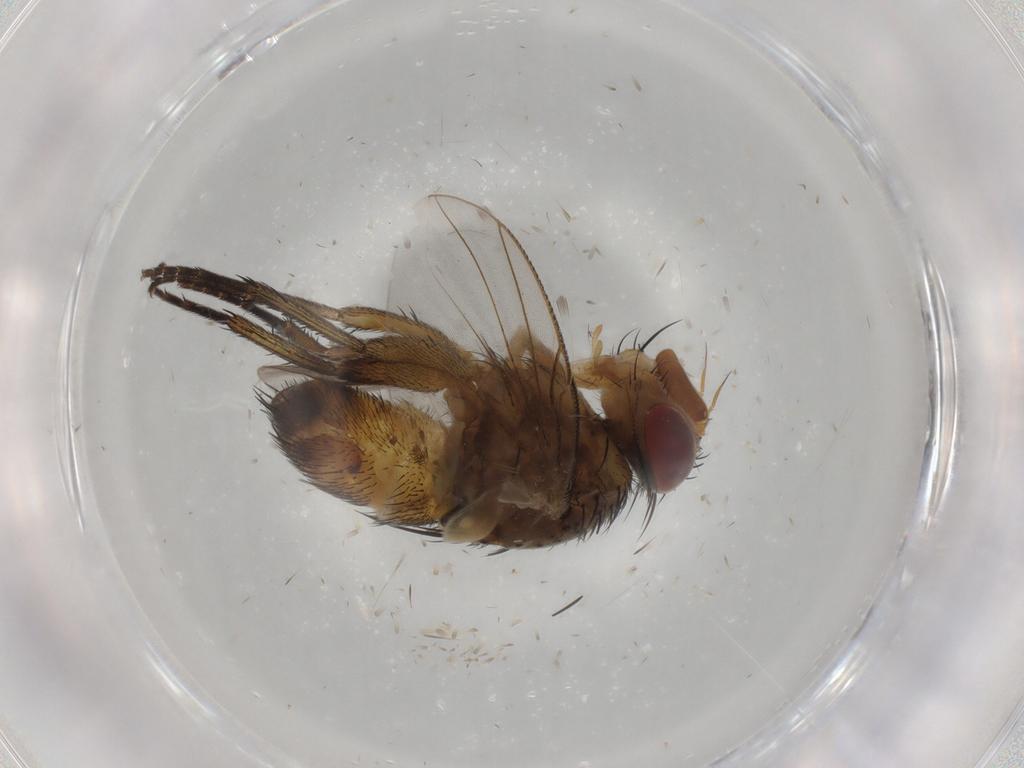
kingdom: Animalia
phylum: Arthropoda
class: Insecta
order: Diptera
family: Tachinidae
